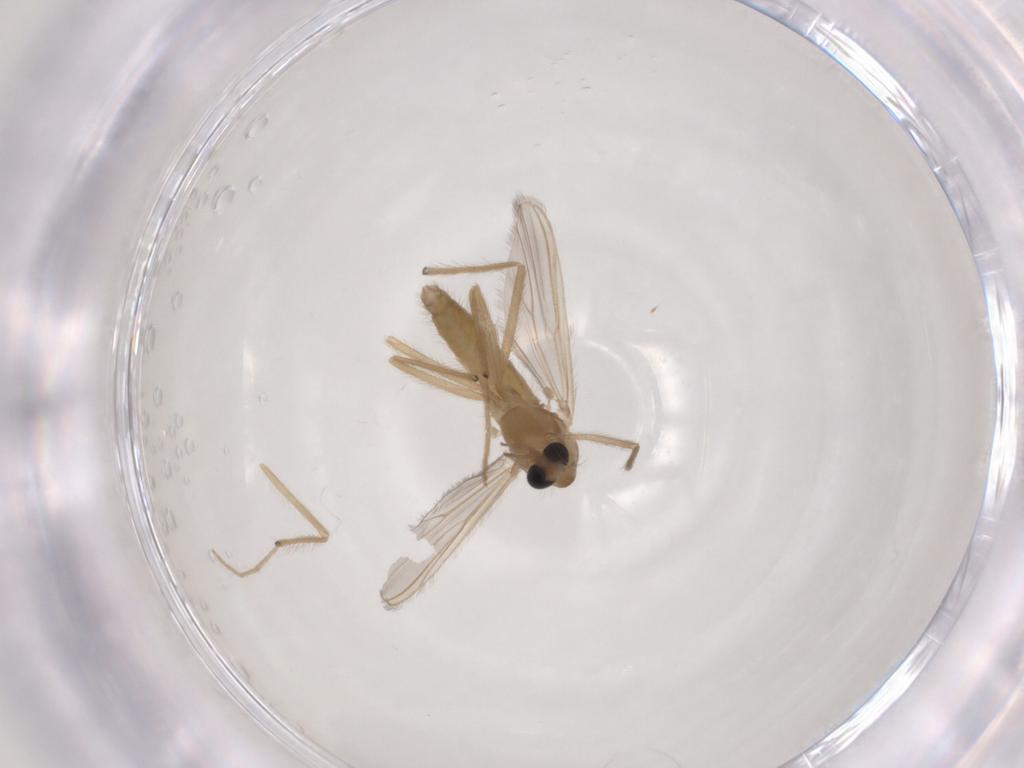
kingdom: Animalia
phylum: Arthropoda
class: Insecta
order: Diptera
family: Chironomidae
